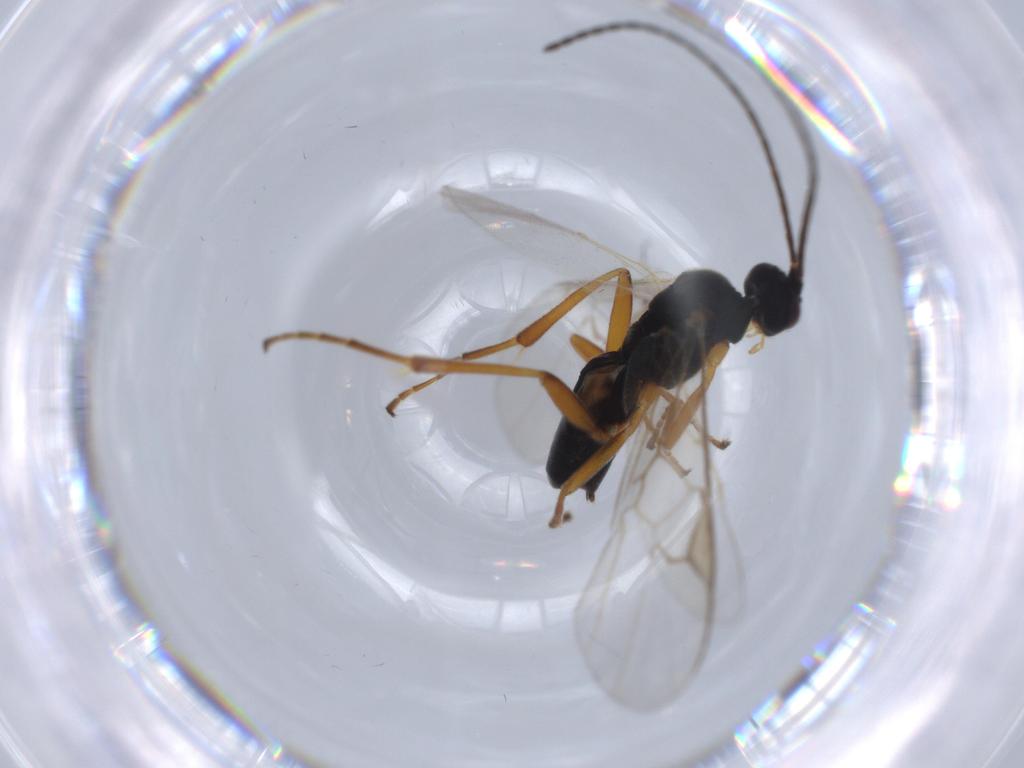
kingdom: Animalia
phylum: Arthropoda
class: Insecta
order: Hymenoptera
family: Braconidae
